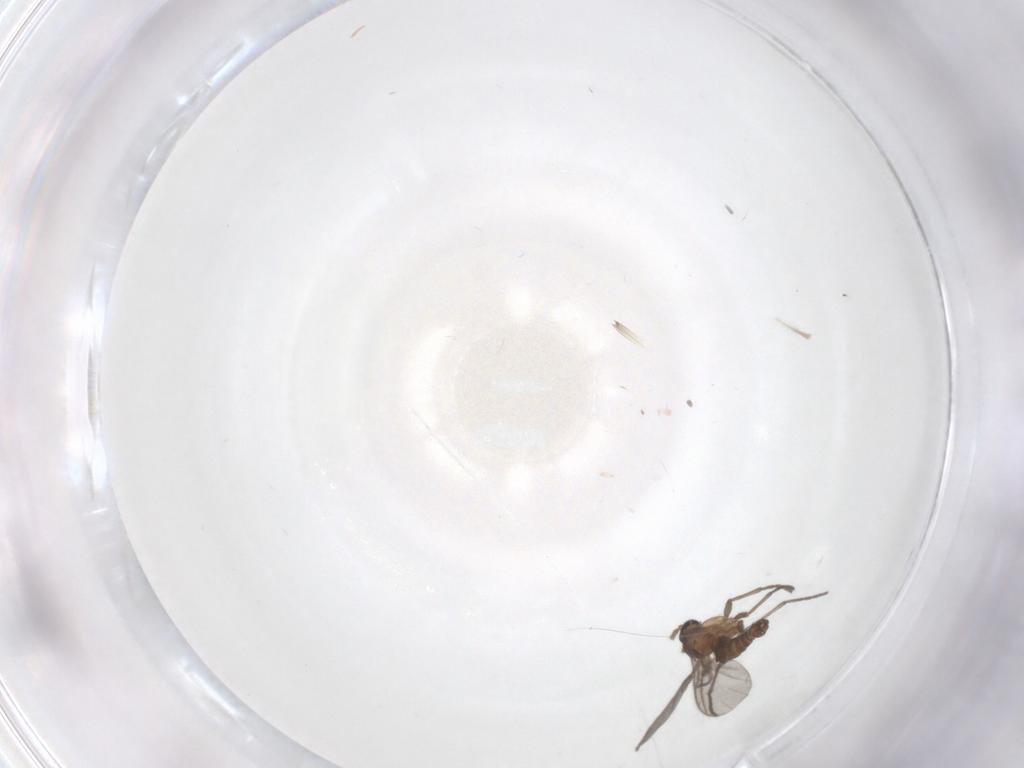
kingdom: Animalia
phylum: Arthropoda
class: Insecta
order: Diptera
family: Sciaridae
